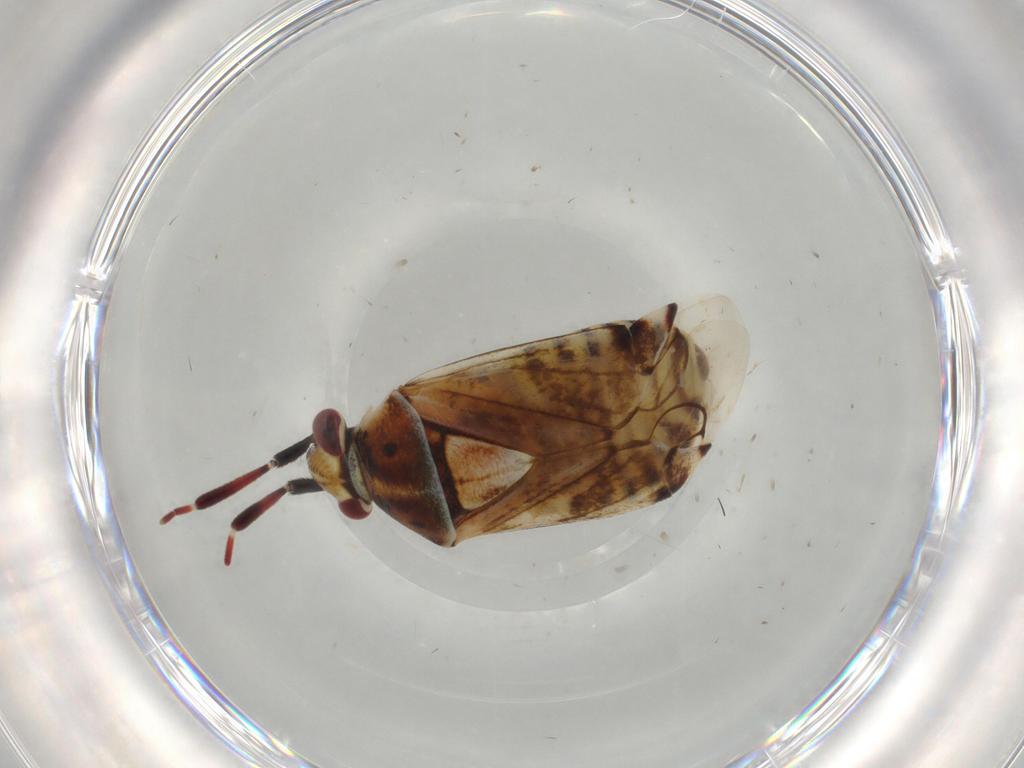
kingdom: Animalia
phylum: Arthropoda
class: Insecta
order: Hemiptera
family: Miridae
